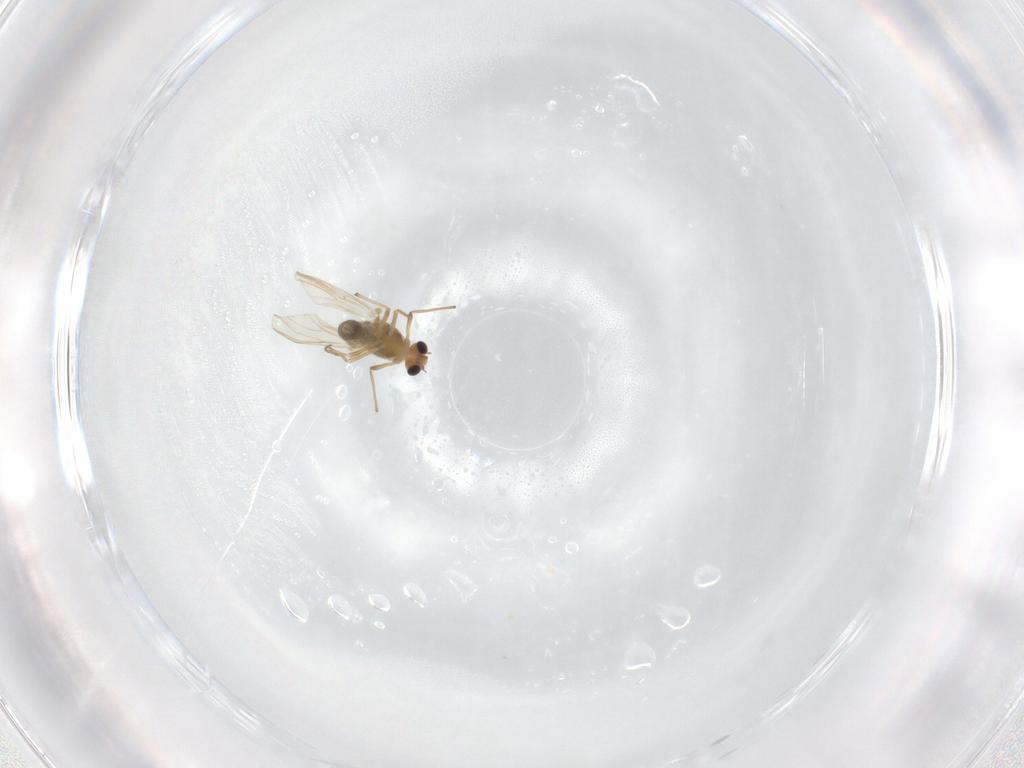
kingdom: Animalia
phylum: Arthropoda
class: Insecta
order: Diptera
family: Chironomidae
